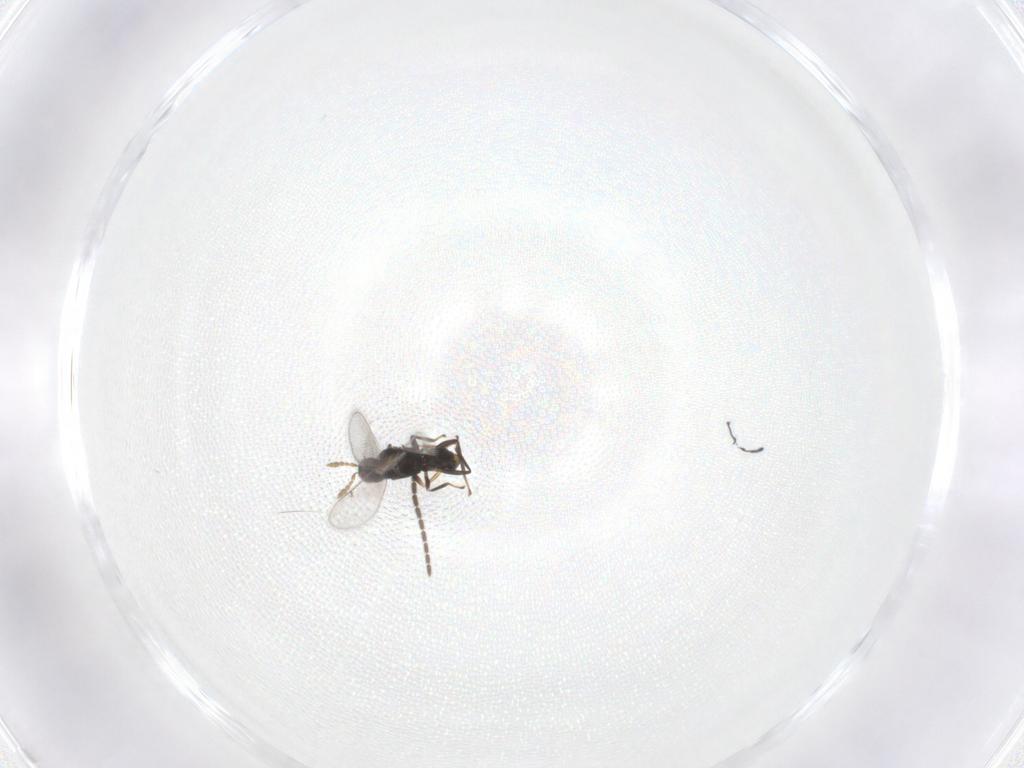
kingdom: Animalia
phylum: Arthropoda
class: Insecta
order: Hymenoptera
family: Eulophidae
